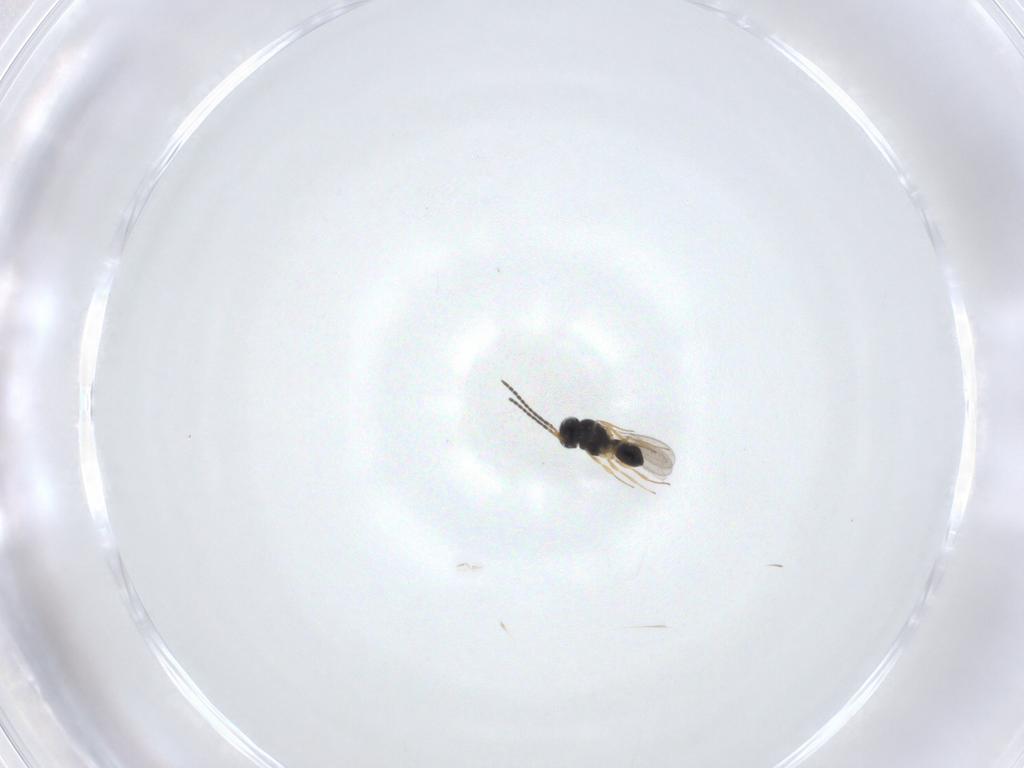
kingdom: Animalia
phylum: Arthropoda
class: Insecta
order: Hymenoptera
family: Scelionidae
